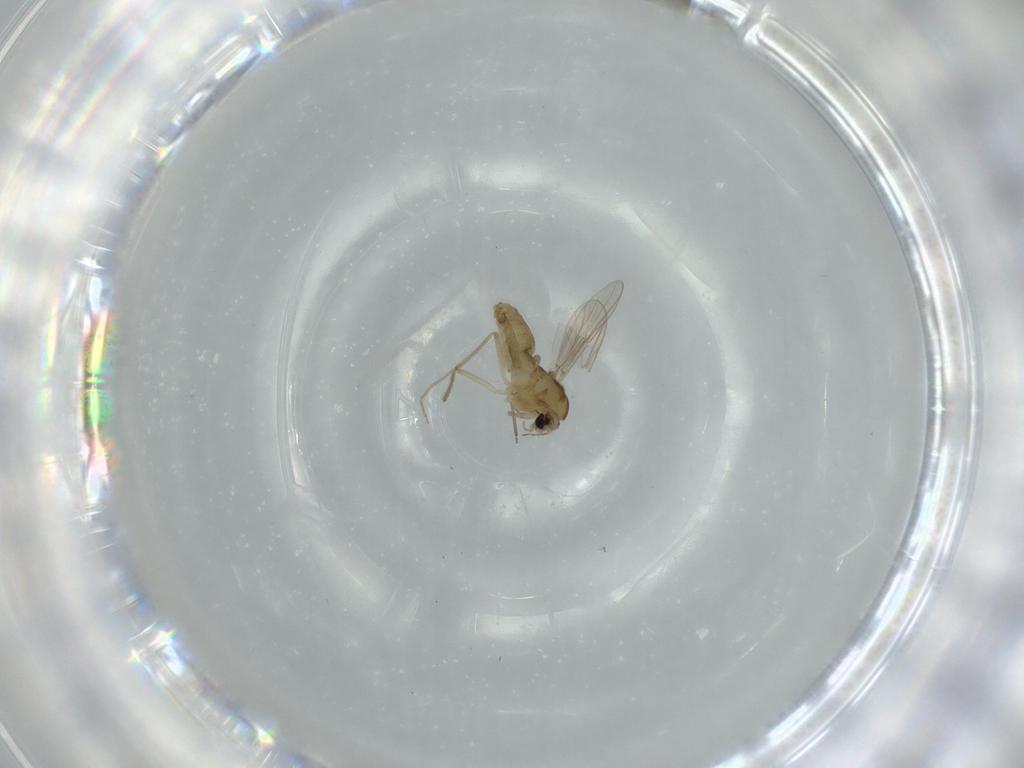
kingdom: Animalia
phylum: Arthropoda
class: Insecta
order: Diptera
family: Chironomidae
